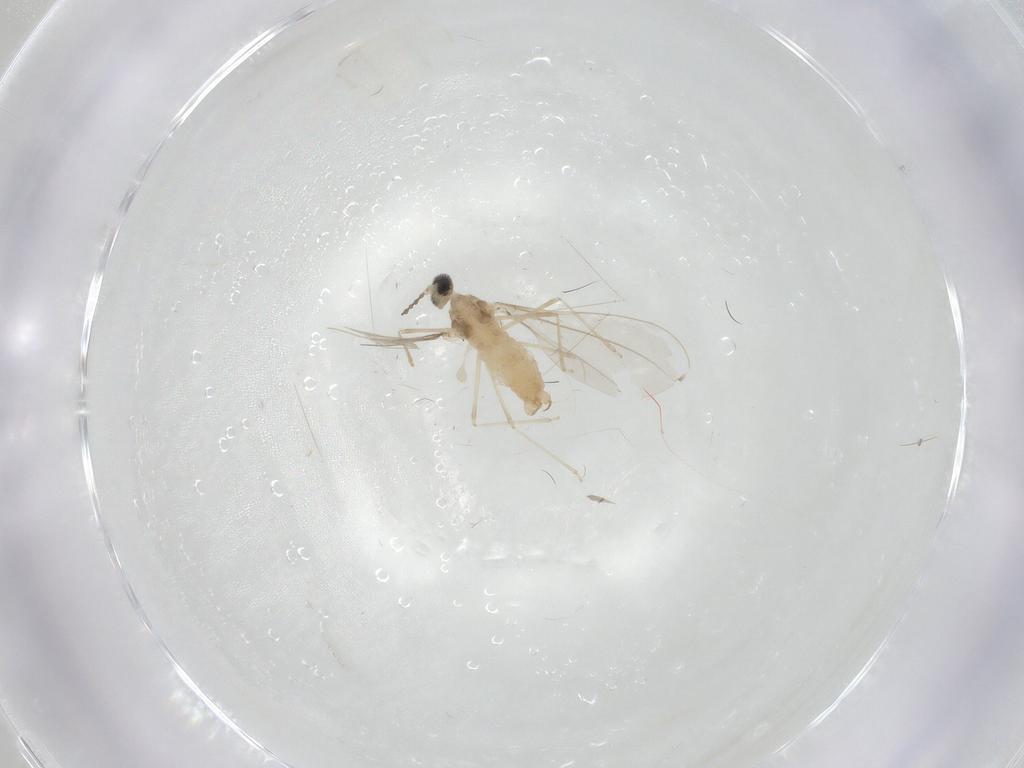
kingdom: Animalia
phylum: Arthropoda
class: Insecta
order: Diptera
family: Cecidomyiidae
